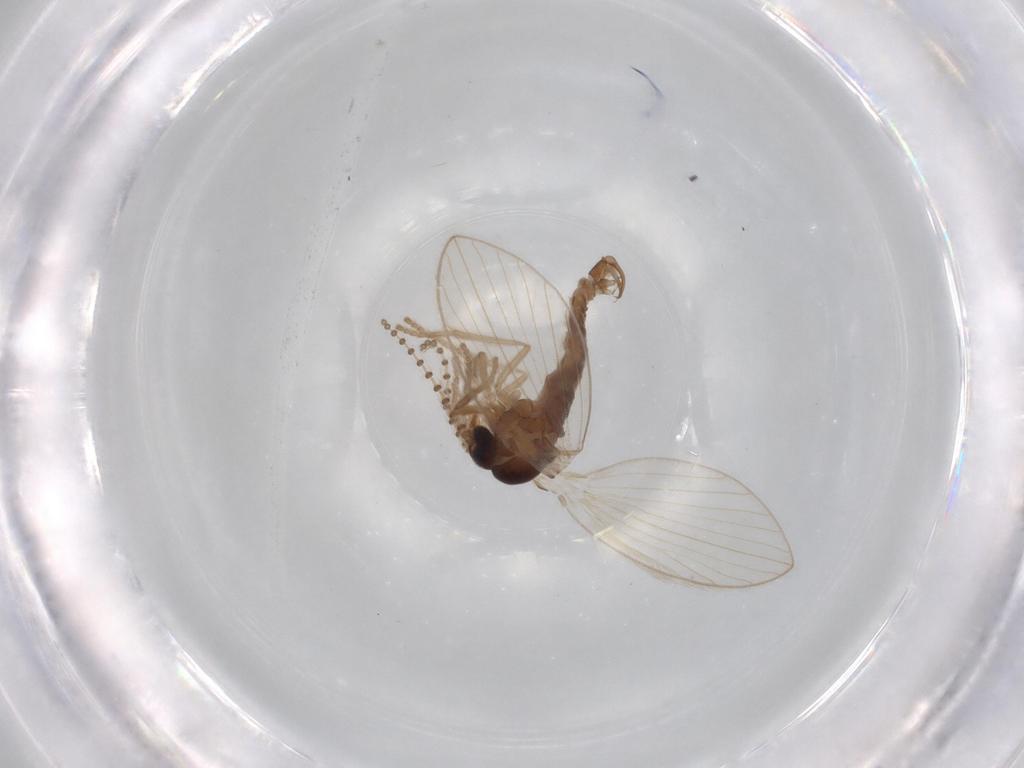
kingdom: Animalia
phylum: Arthropoda
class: Insecta
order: Diptera
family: Psychodidae
